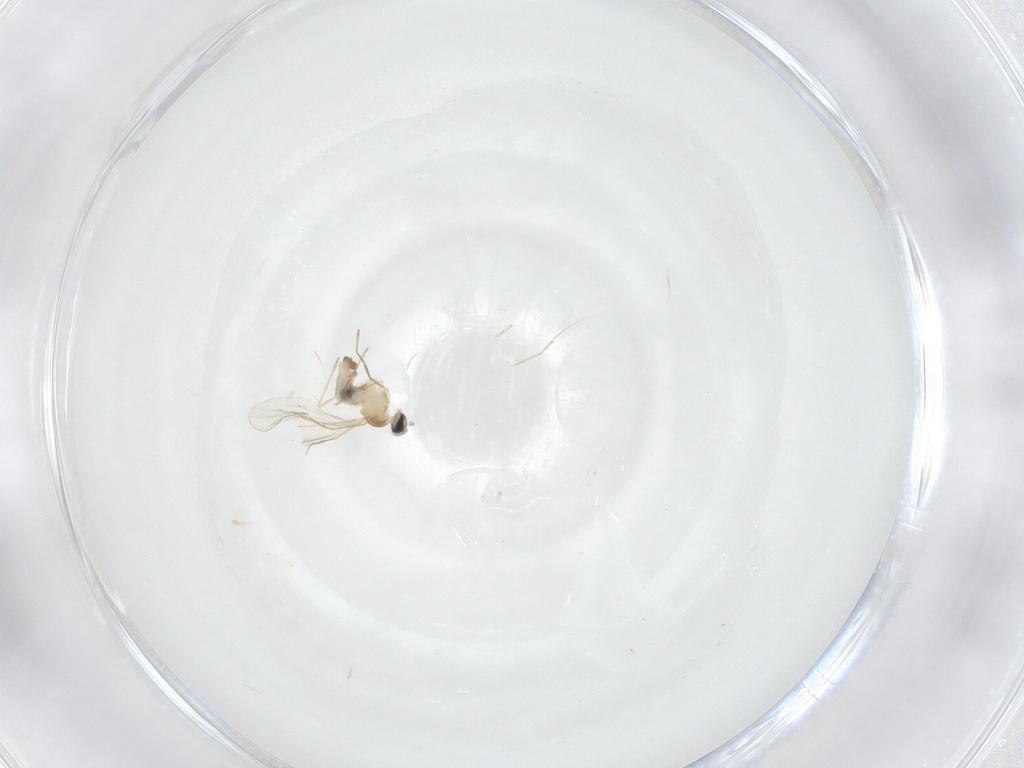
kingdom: Animalia
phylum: Arthropoda
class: Insecta
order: Diptera
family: Cecidomyiidae
